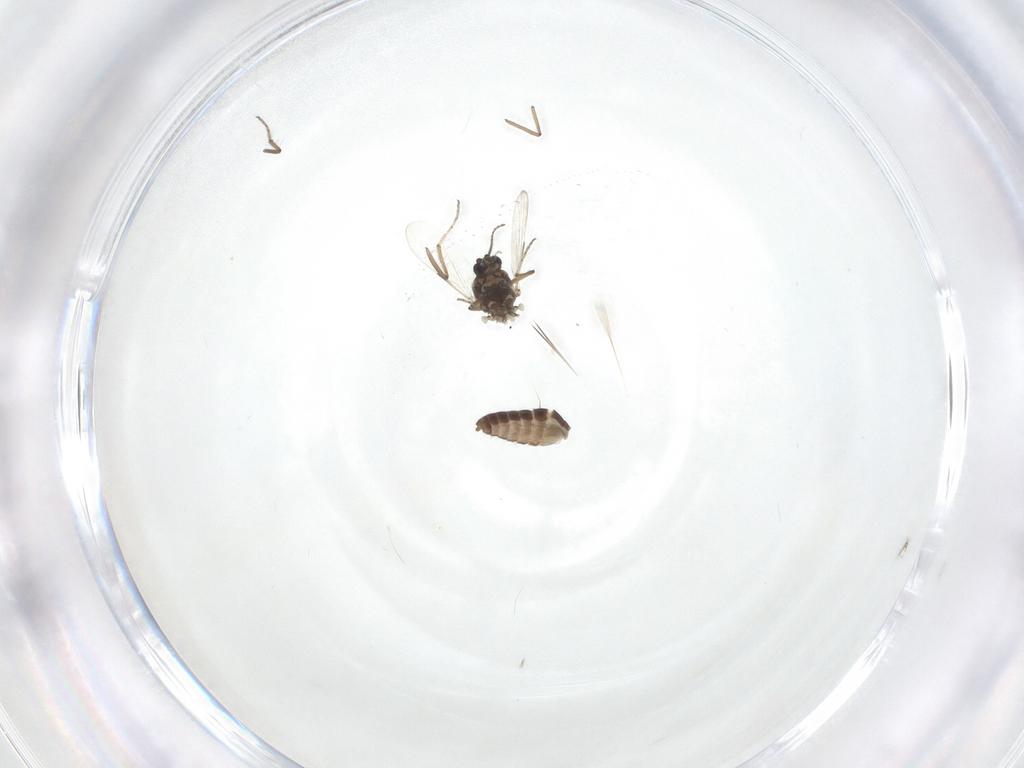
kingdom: Animalia
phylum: Arthropoda
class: Insecta
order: Diptera
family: Ceratopogonidae
